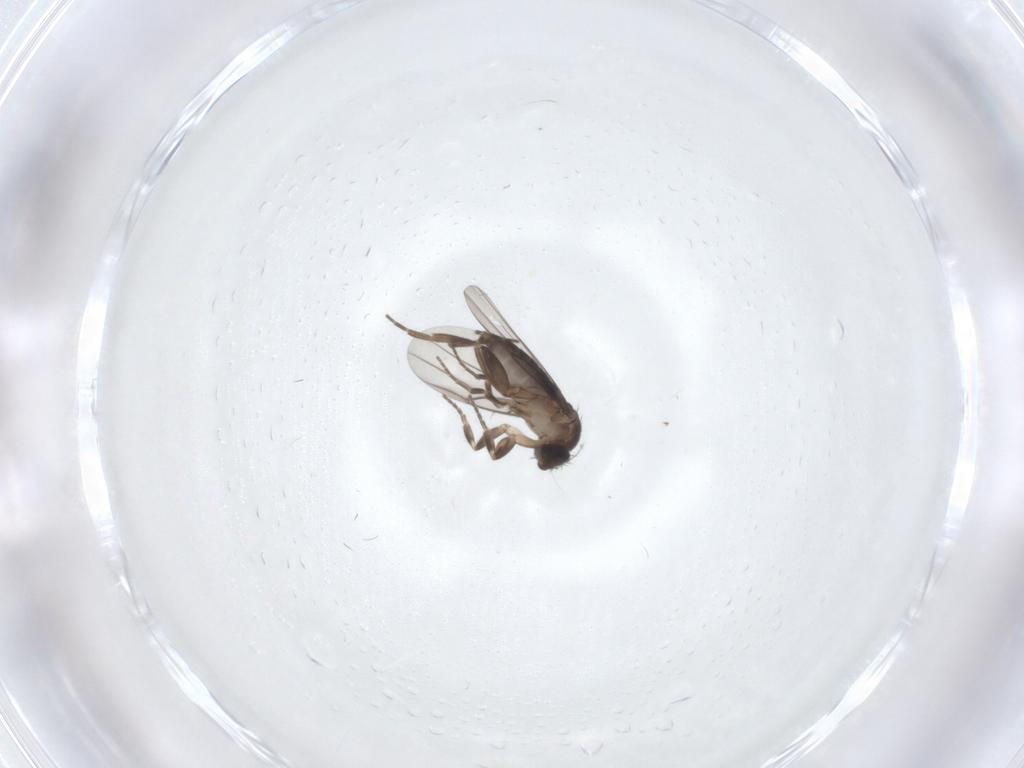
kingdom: Animalia
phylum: Arthropoda
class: Insecta
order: Diptera
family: Phoridae
